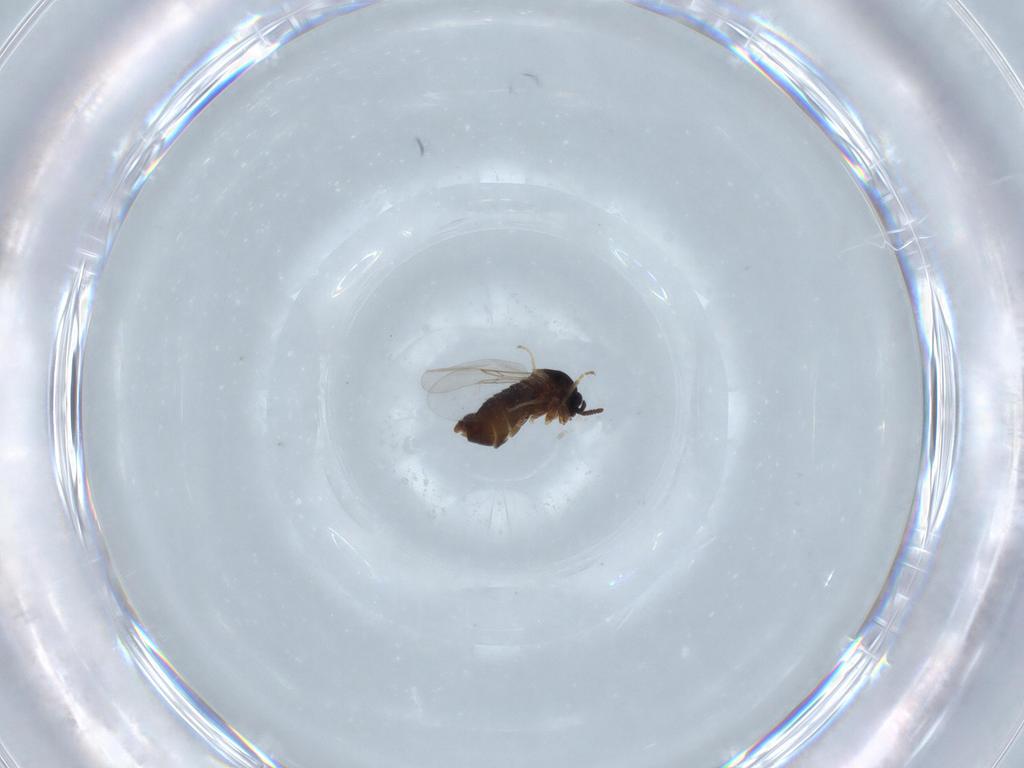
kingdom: Animalia
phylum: Arthropoda
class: Insecta
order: Diptera
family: Scatopsidae
